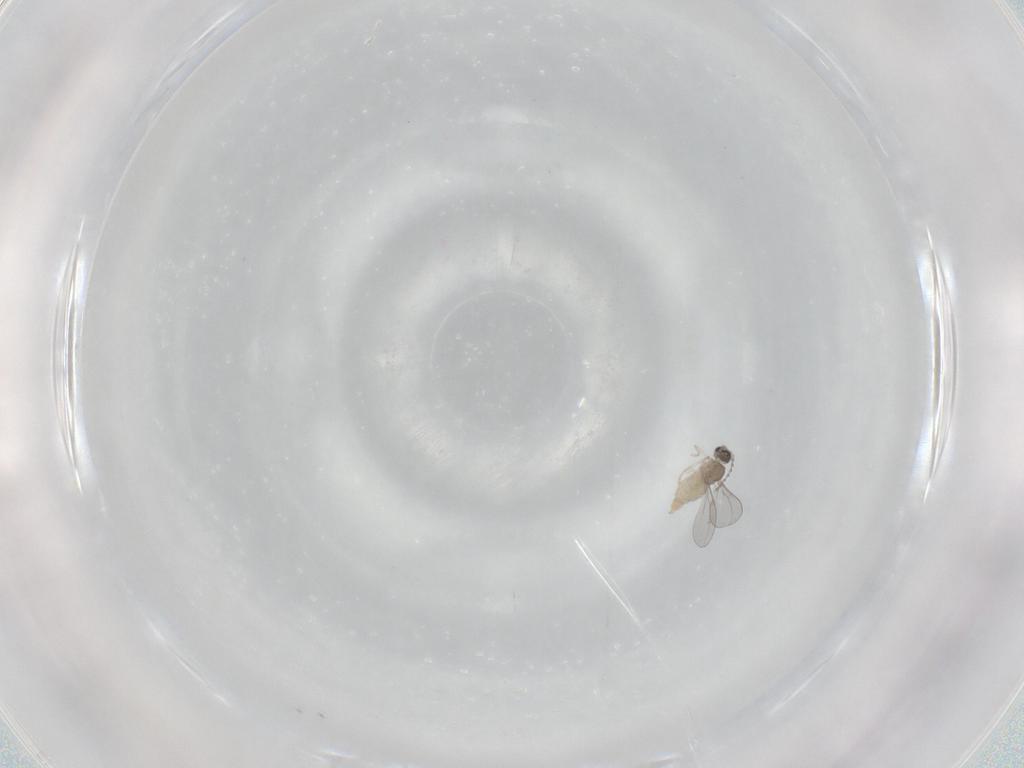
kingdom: Animalia
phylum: Arthropoda
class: Insecta
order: Diptera
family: Cecidomyiidae
